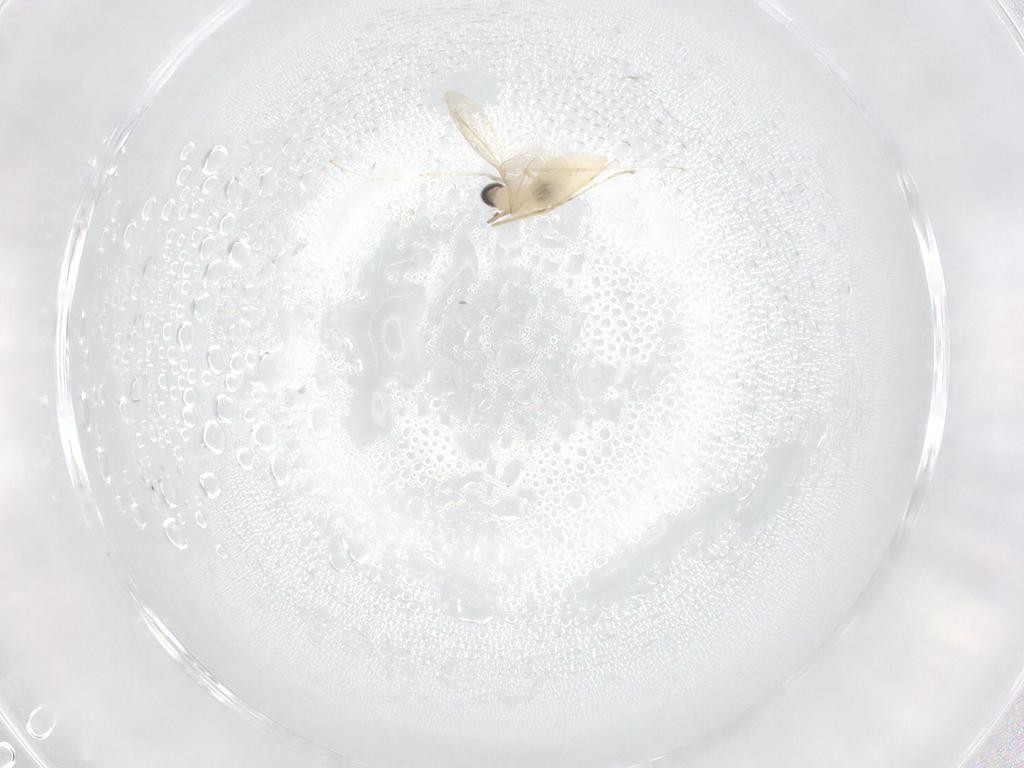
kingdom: Animalia
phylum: Arthropoda
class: Insecta
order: Diptera
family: Cecidomyiidae
